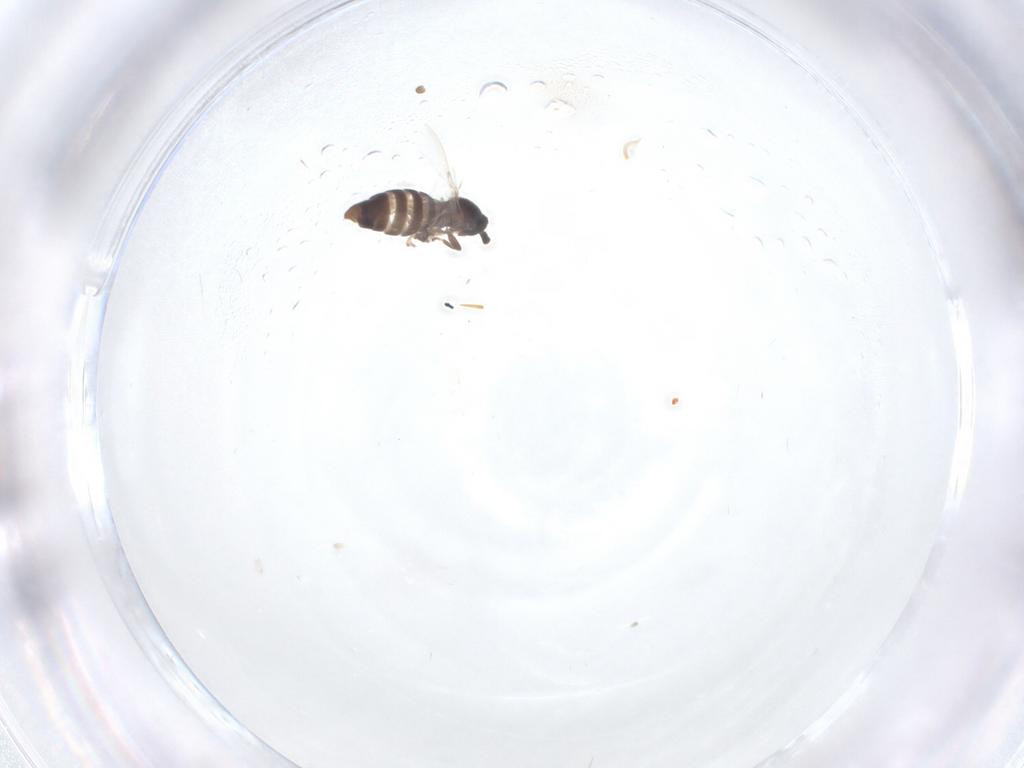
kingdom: Animalia
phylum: Arthropoda
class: Insecta
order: Diptera
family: Scatopsidae
